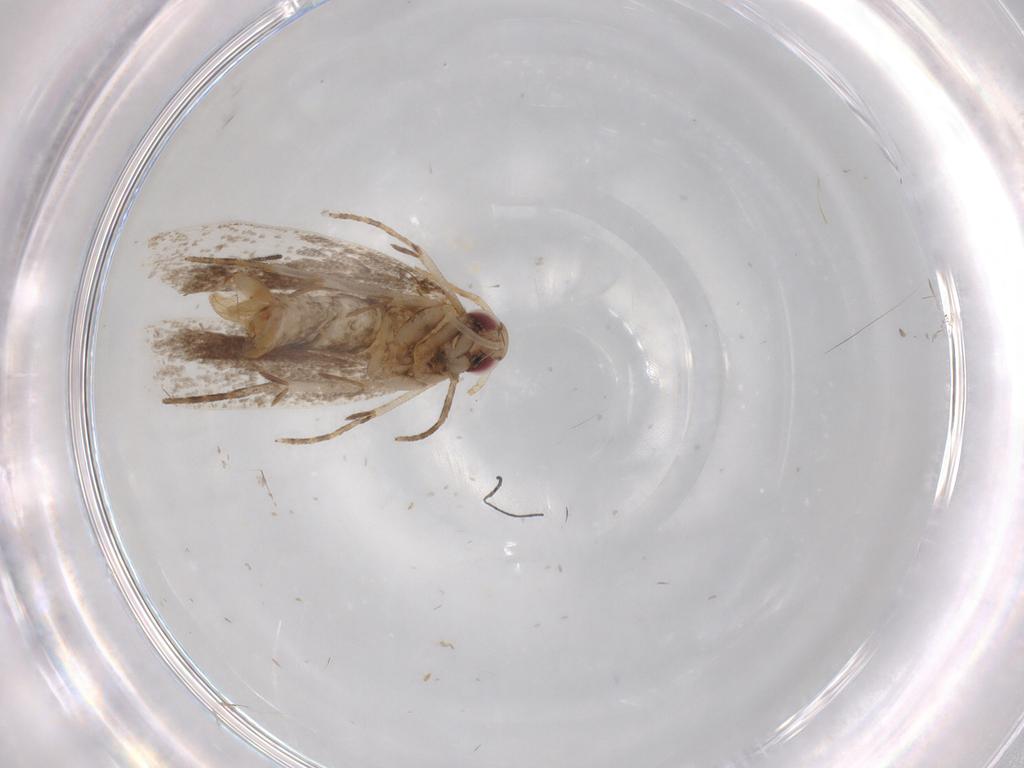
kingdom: Animalia
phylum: Arthropoda
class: Insecta
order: Lepidoptera
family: Gelechiidae
